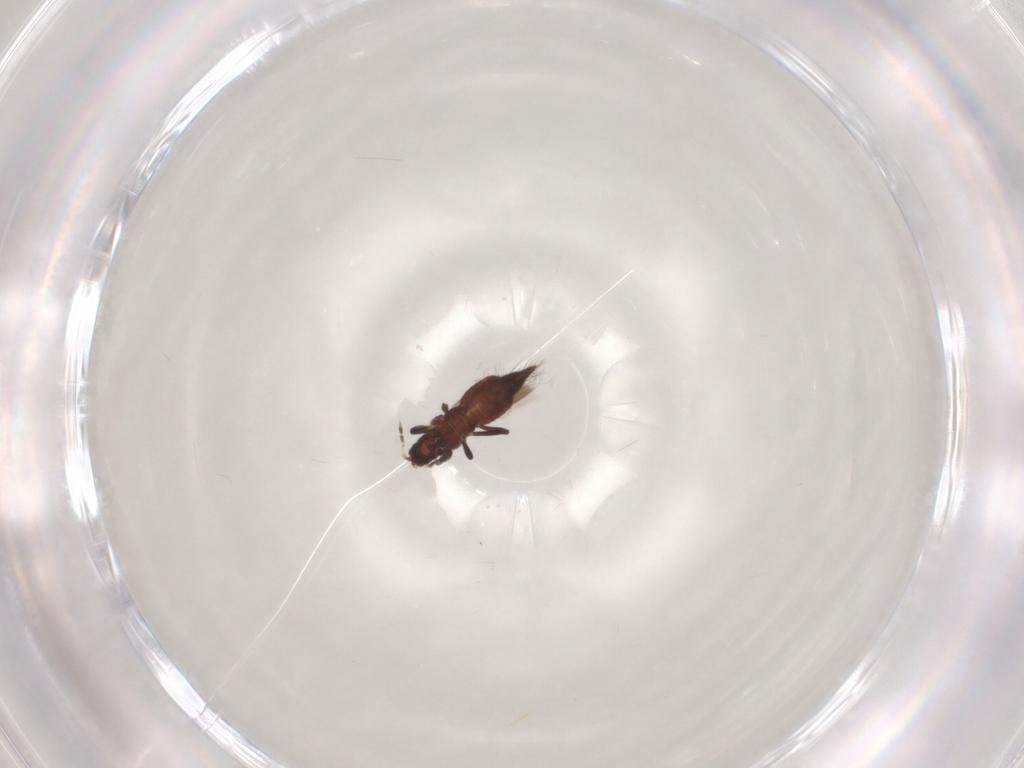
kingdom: Animalia
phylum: Arthropoda
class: Insecta
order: Thysanoptera
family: Aeolothripidae
